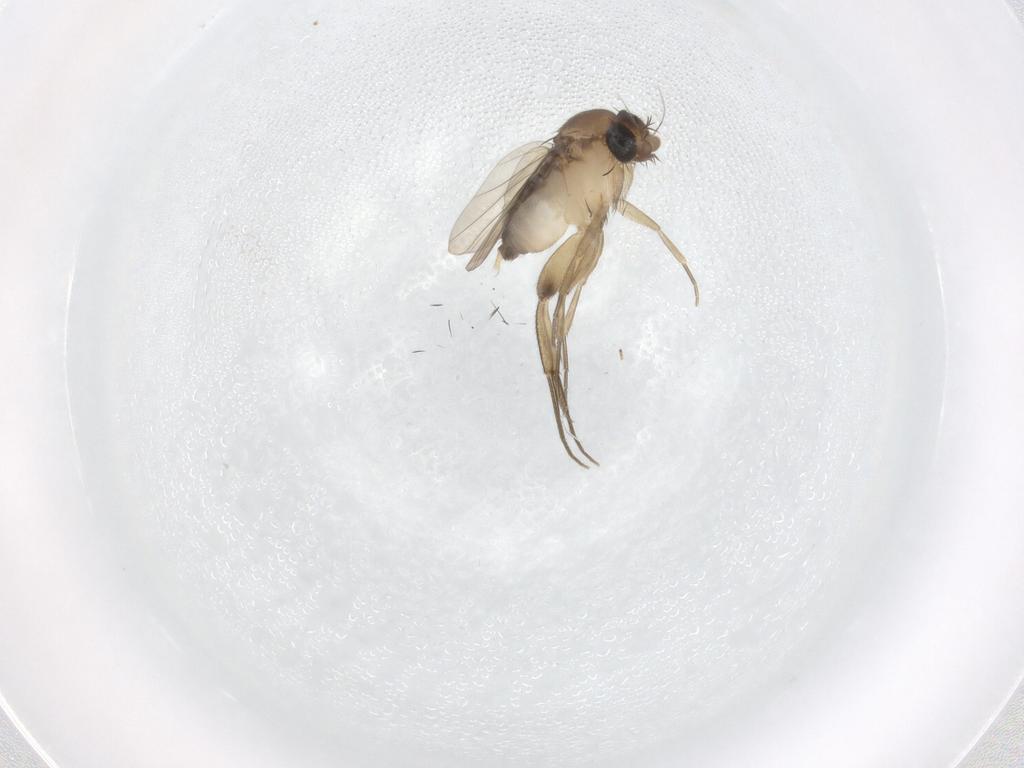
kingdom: Animalia
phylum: Arthropoda
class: Insecta
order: Diptera
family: Phoridae
